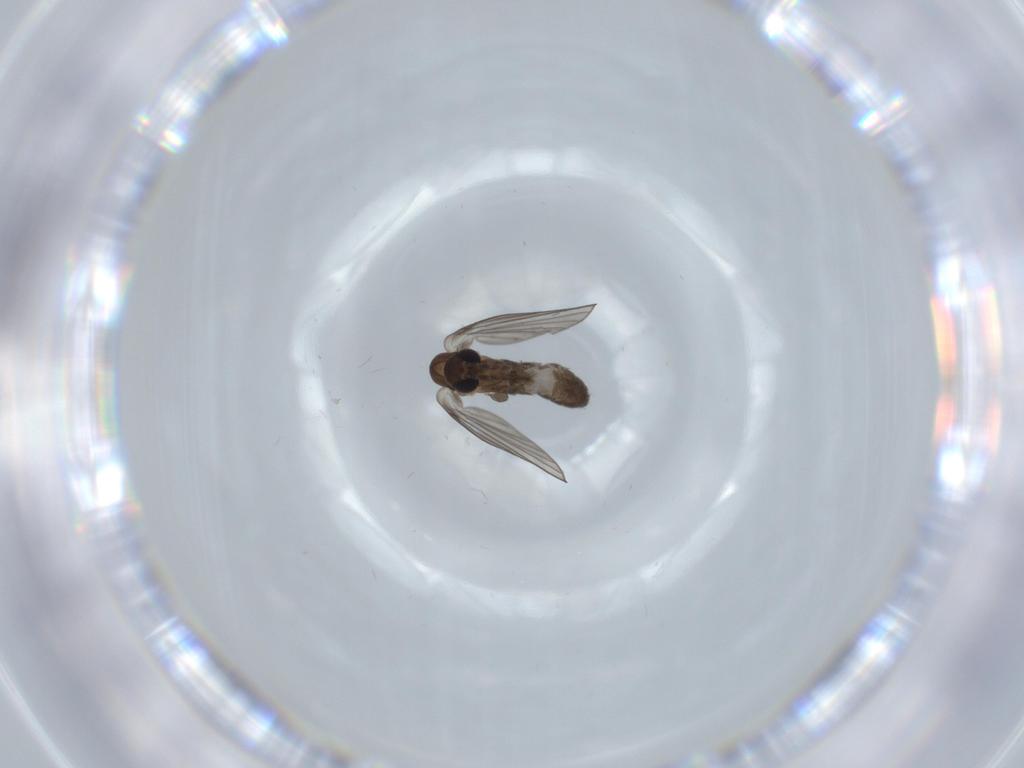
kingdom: Animalia
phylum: Arthropoda
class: Insecta
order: Diptera
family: Psychodidae
